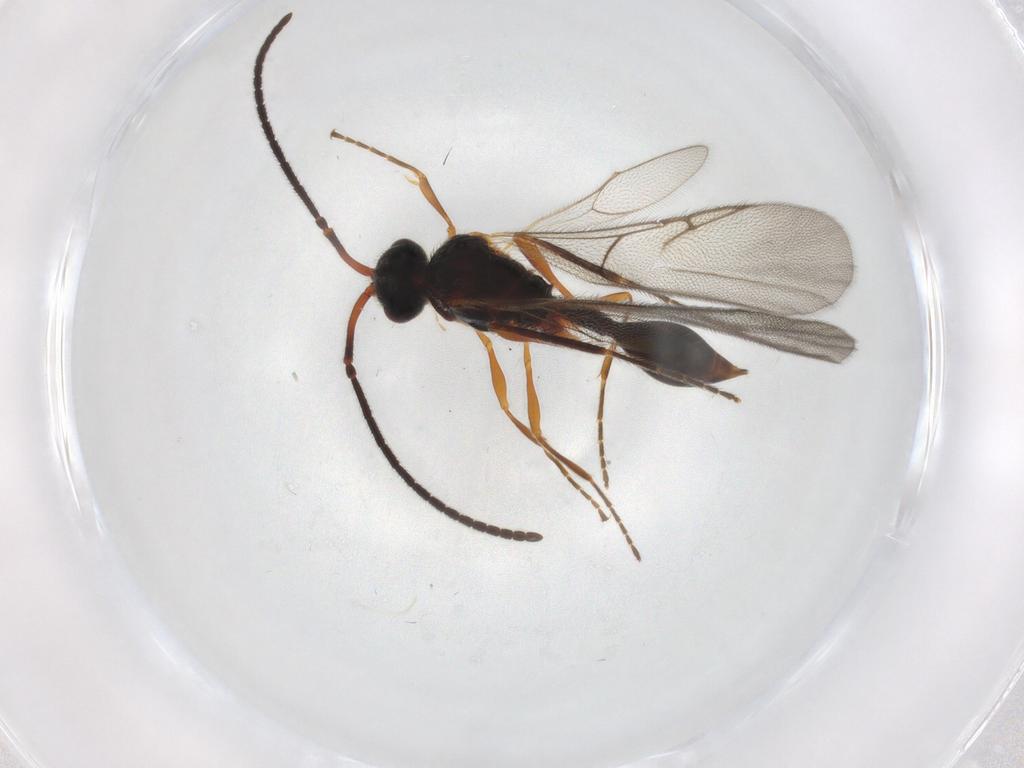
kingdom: Animalia
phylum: Arthropoda
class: Insecta
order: Hymenoptera
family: Diapriidae
